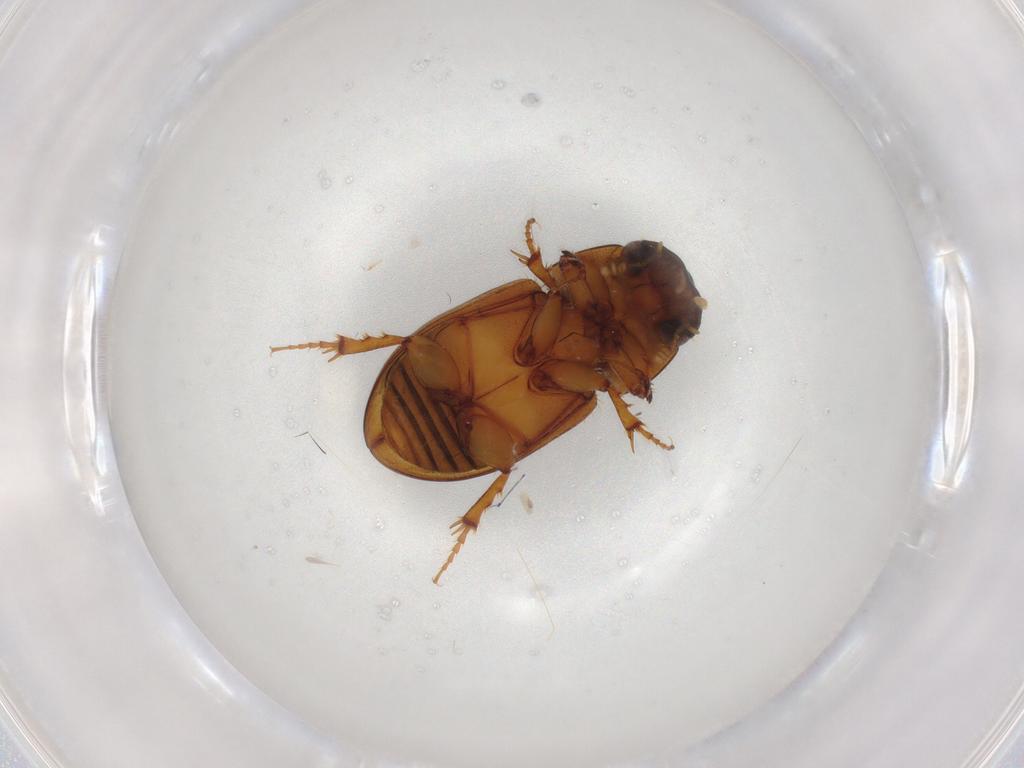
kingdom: Animalia
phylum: Arthropoda
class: Insecta
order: Coleoptera
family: Chrysomelidae
